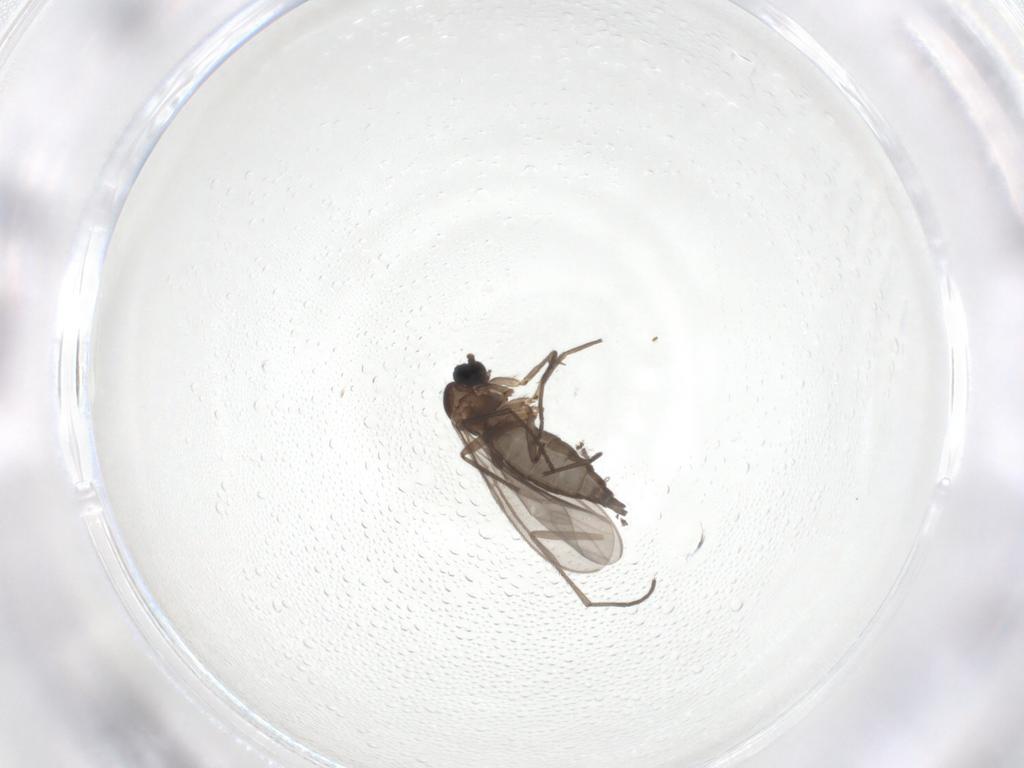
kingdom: Animalia
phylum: Arthropoda
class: Insecta
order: Diptera
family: Sciaridae
